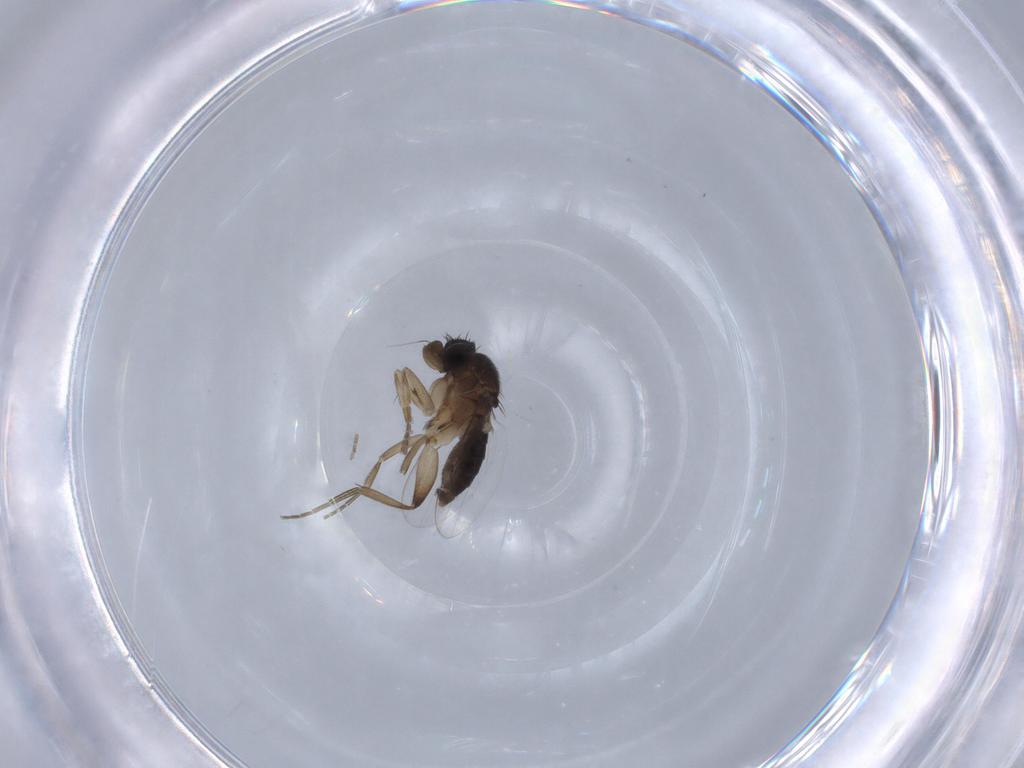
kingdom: Animalia
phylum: Arthropoda
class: Insecta
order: Diptera
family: Phoridae
